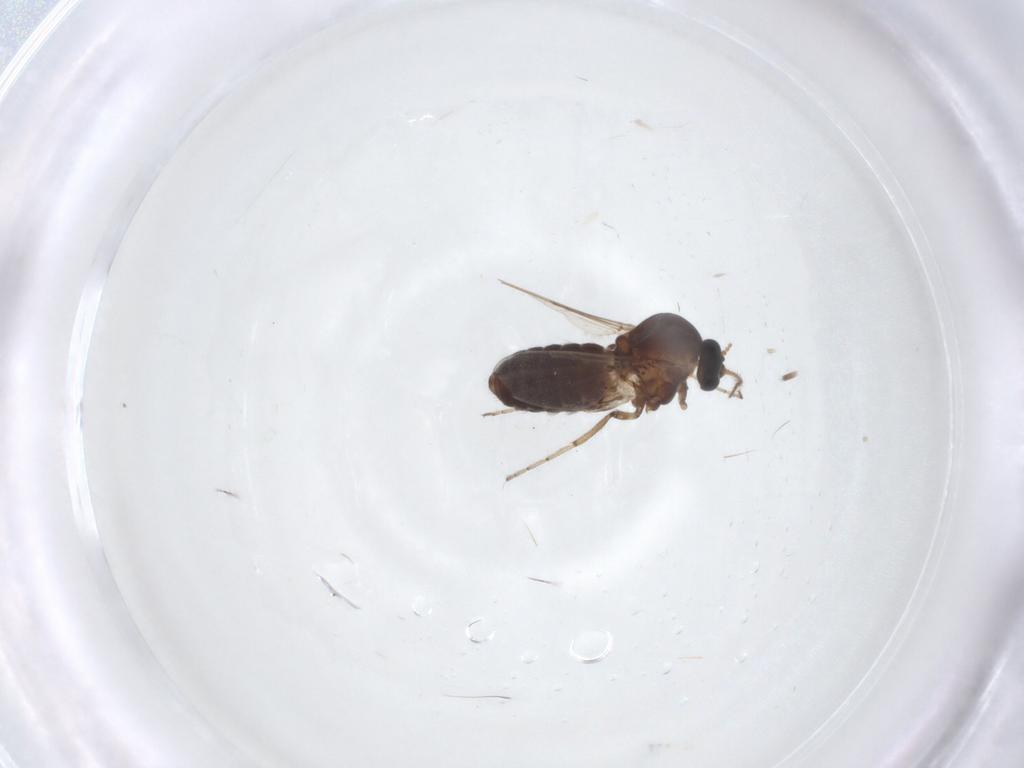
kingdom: Animalia
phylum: Arthropoda
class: Insecta
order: Diptera
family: Ceratopogonidae
